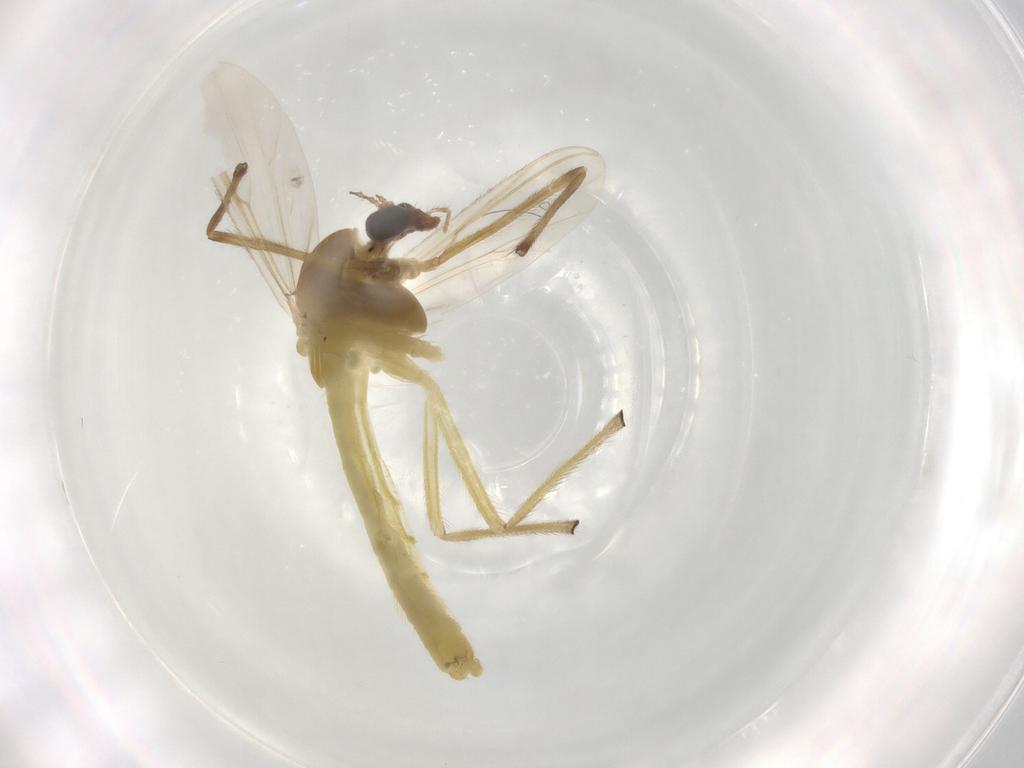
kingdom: Animalia
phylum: Arthropoda
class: Insecta
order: Diptera
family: Chironomidae
